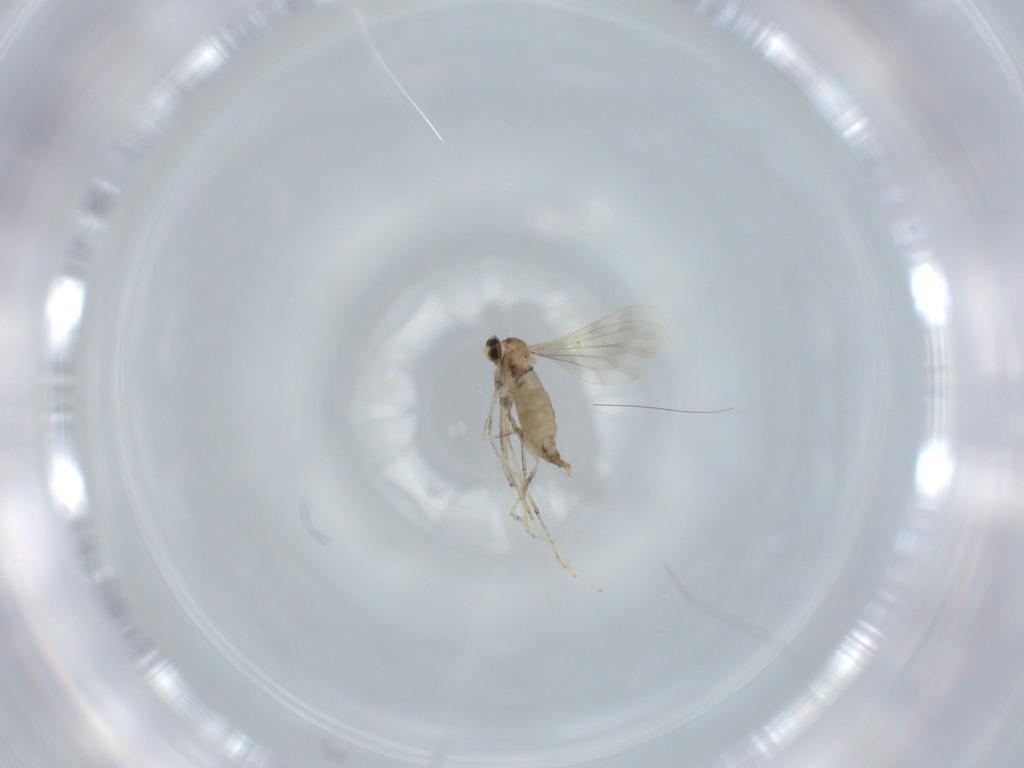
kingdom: Animalia
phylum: Arthropoda
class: Insecta
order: Diptera
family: Cecidomyiidae
